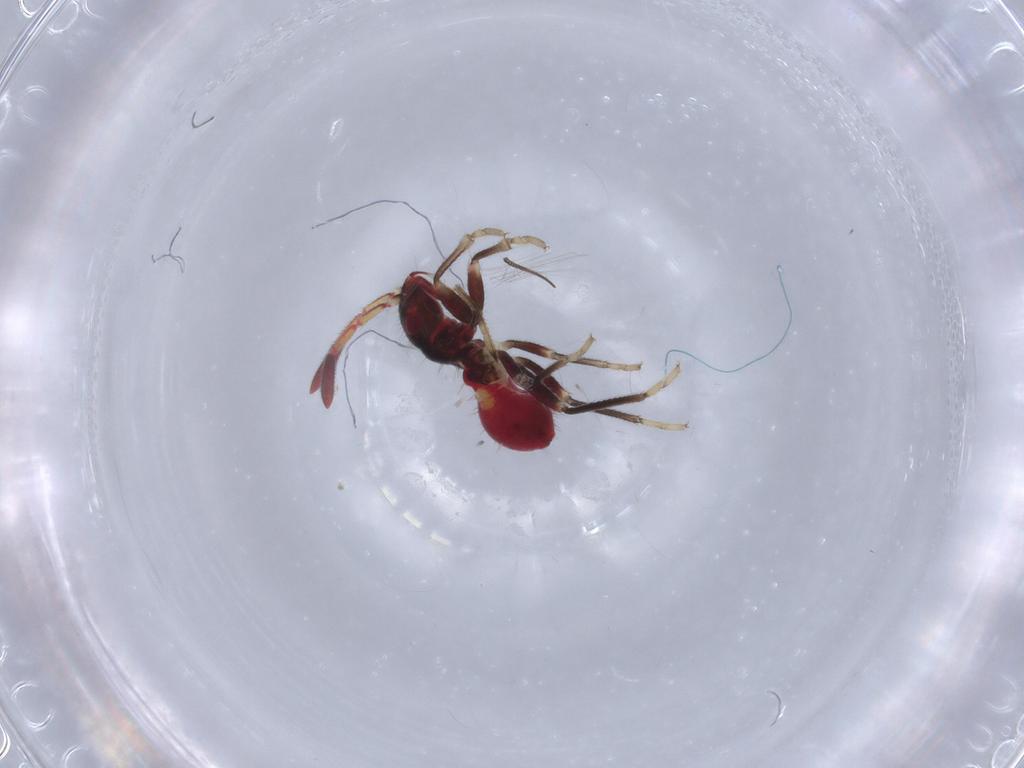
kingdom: Animalia
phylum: Arthropoda
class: Insecta
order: Hemiptera
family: Rhyparochromidae
